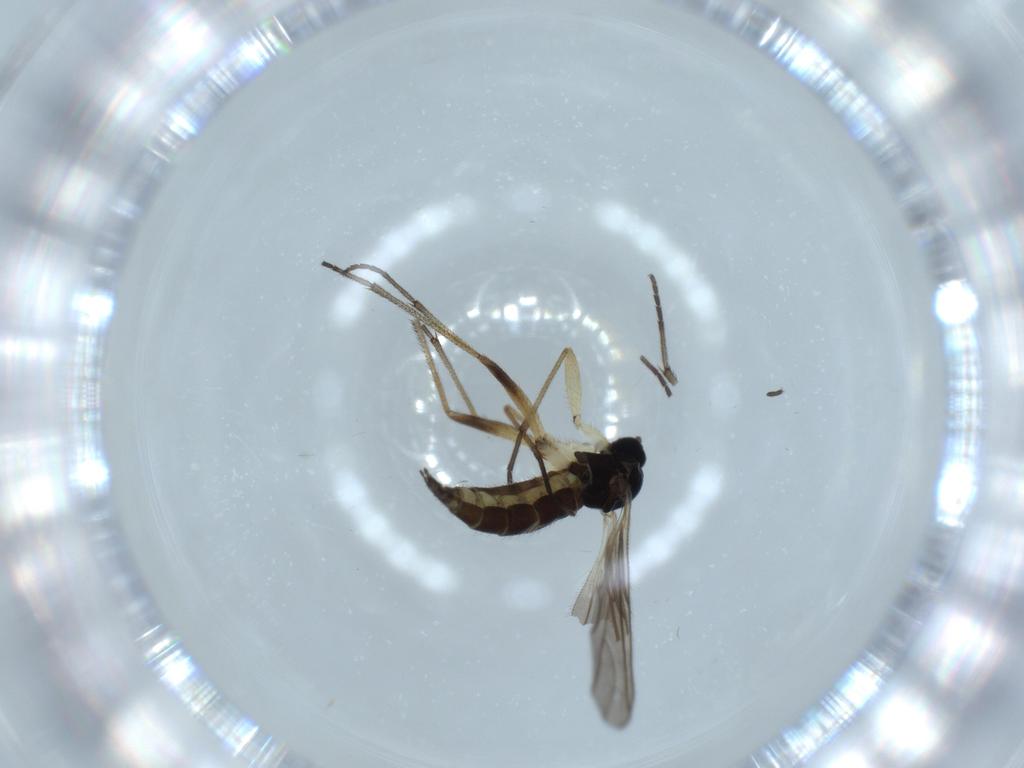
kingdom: Animalia
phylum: Arthropoda
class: Insecta
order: Diptera
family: Sciaridae
